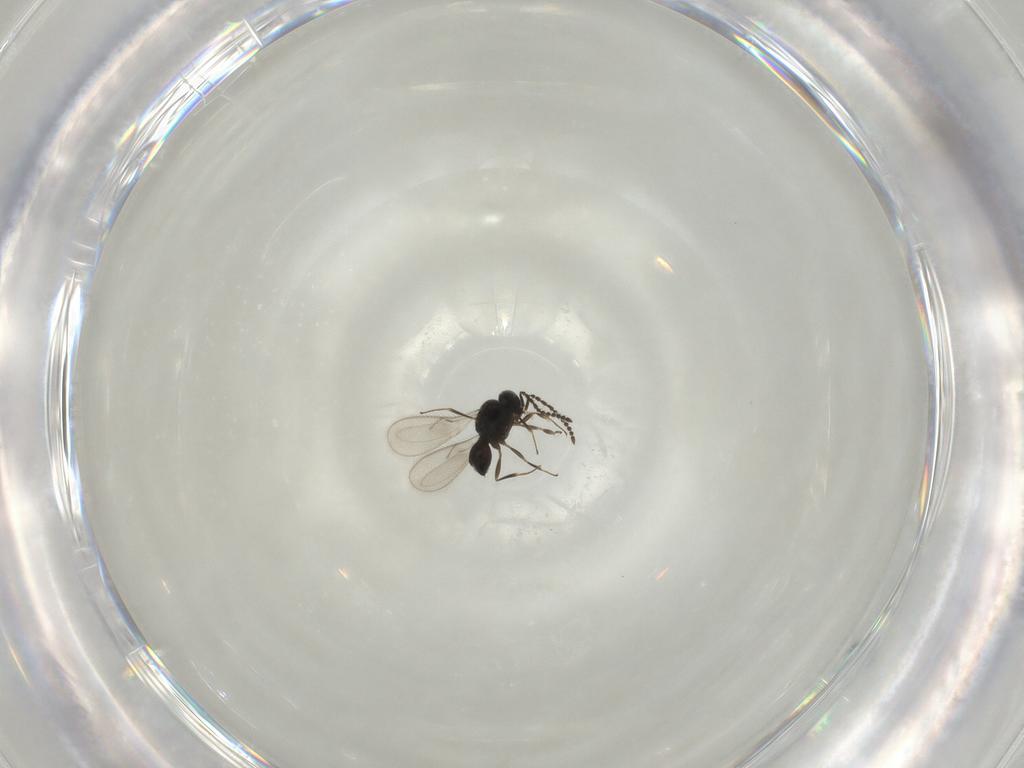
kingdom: Animalia
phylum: Arthropoda
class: Insecta
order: Hymenoptera
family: Scelionidae
